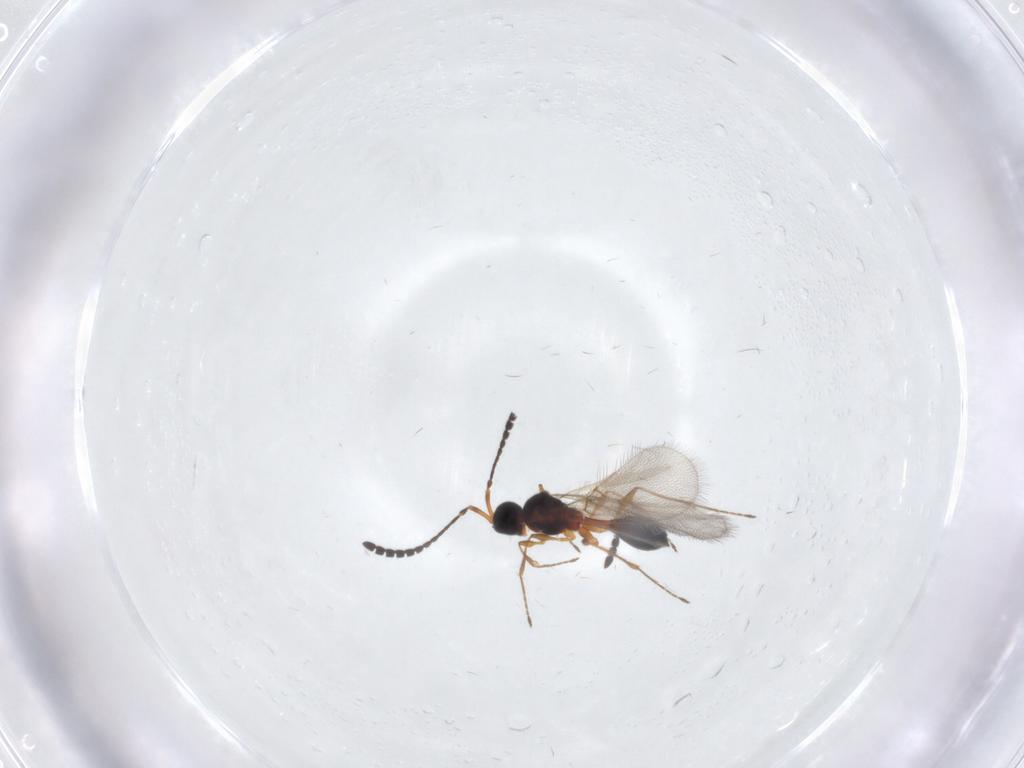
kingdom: Animalia
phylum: Arthropoda
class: Insecta
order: Hymenoptera
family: Diapriidae
